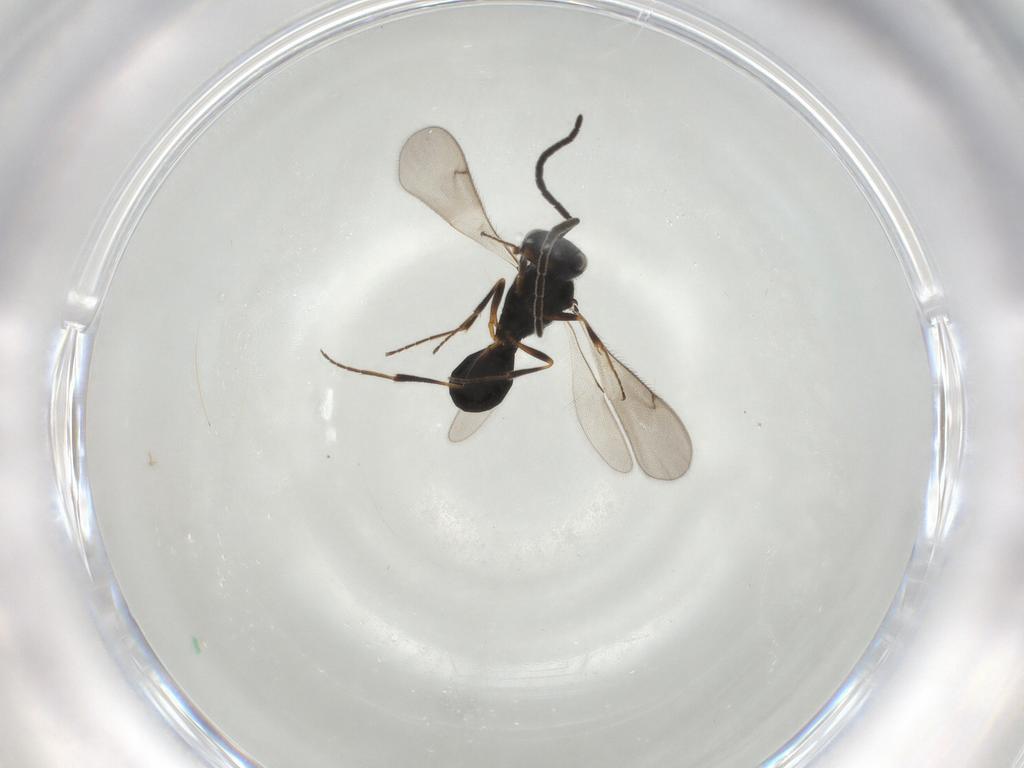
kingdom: Animalia
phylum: Arthropoda
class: Insecta
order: Hymenoptera
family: Scelionidae
